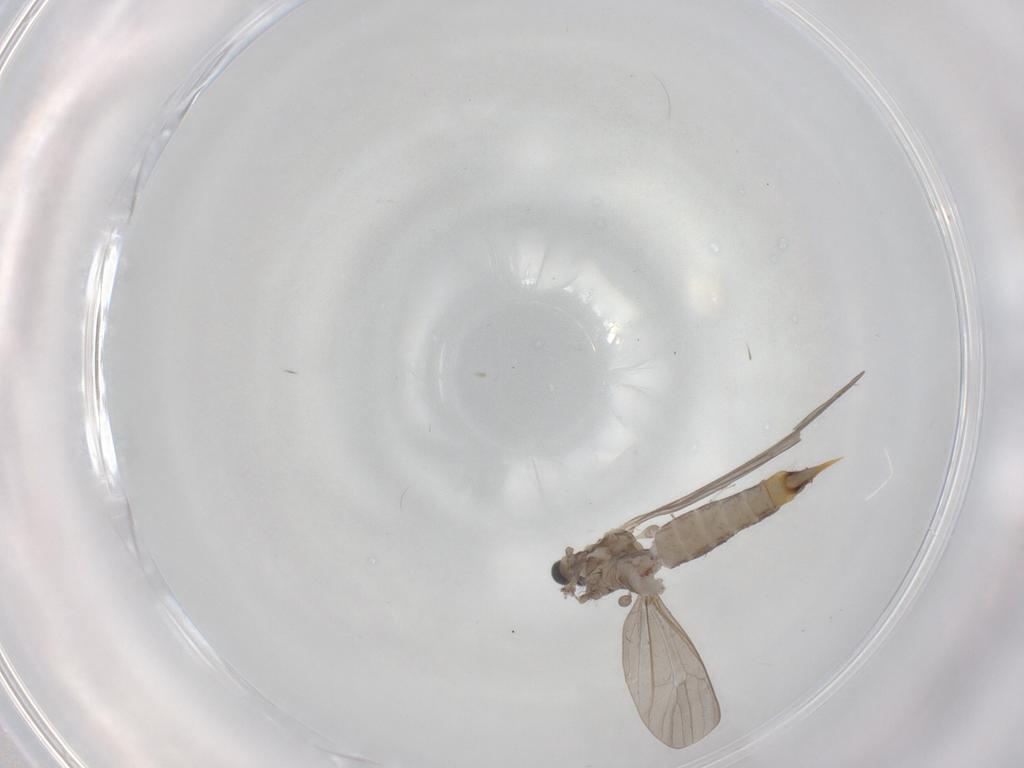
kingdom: Animalia
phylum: Arthropoda
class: Insecta
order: Diptera
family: Limoniidae
